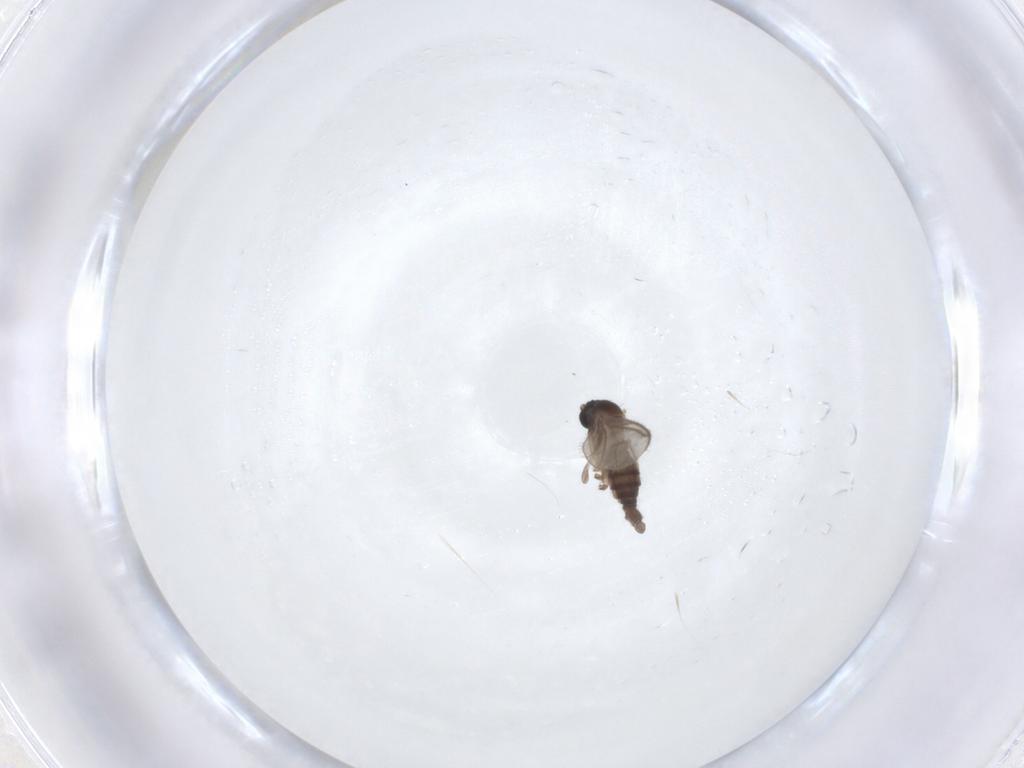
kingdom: Animalia
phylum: Arthropoda
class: Insecta
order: Diptera
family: Sciaridae
